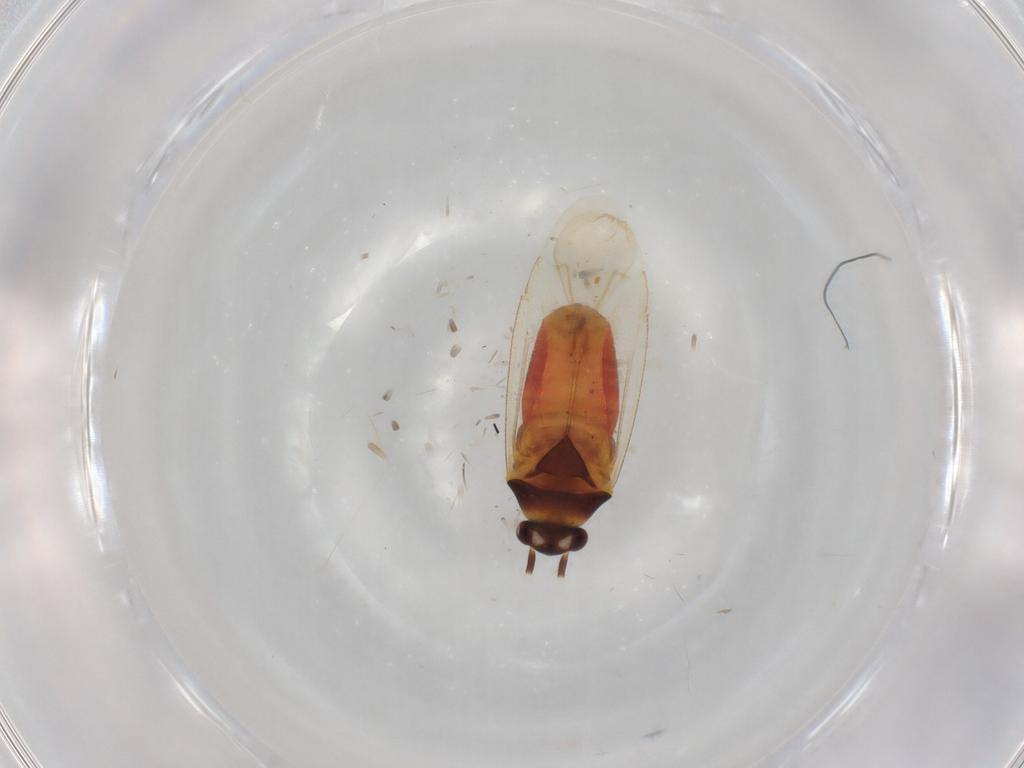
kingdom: Animalia
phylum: Arthropoda
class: Insecta
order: Hemiptera
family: Miridae
